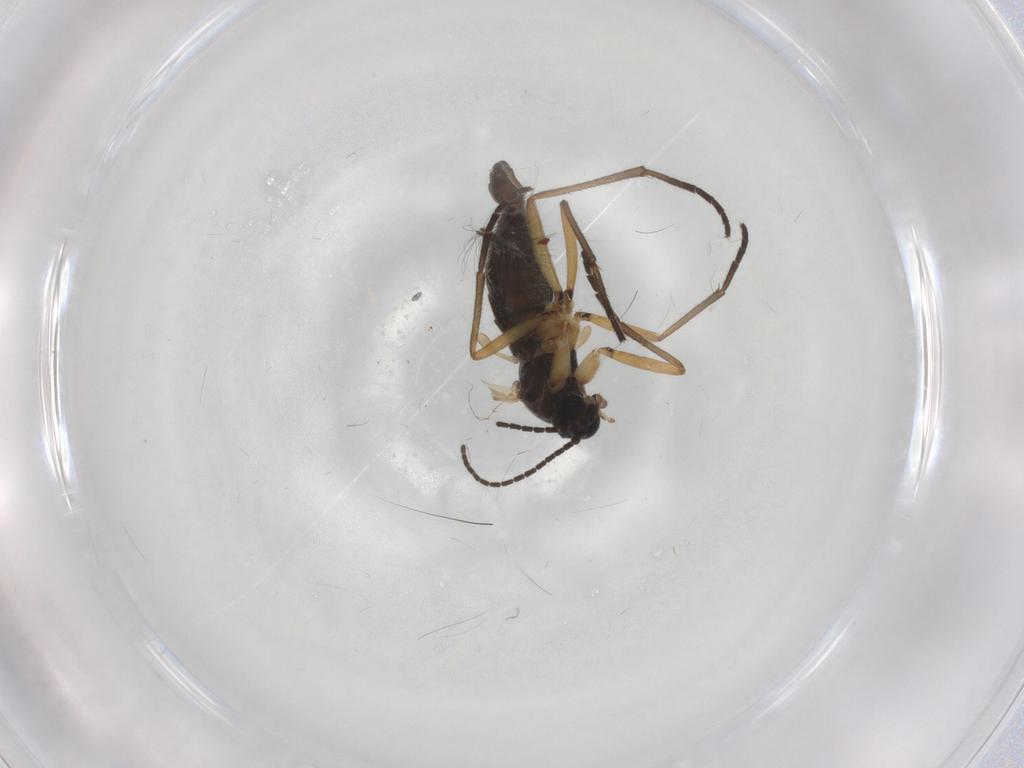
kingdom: Animalia
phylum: Arthropoda
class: Insecta
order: Diptera
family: Sciaridae
